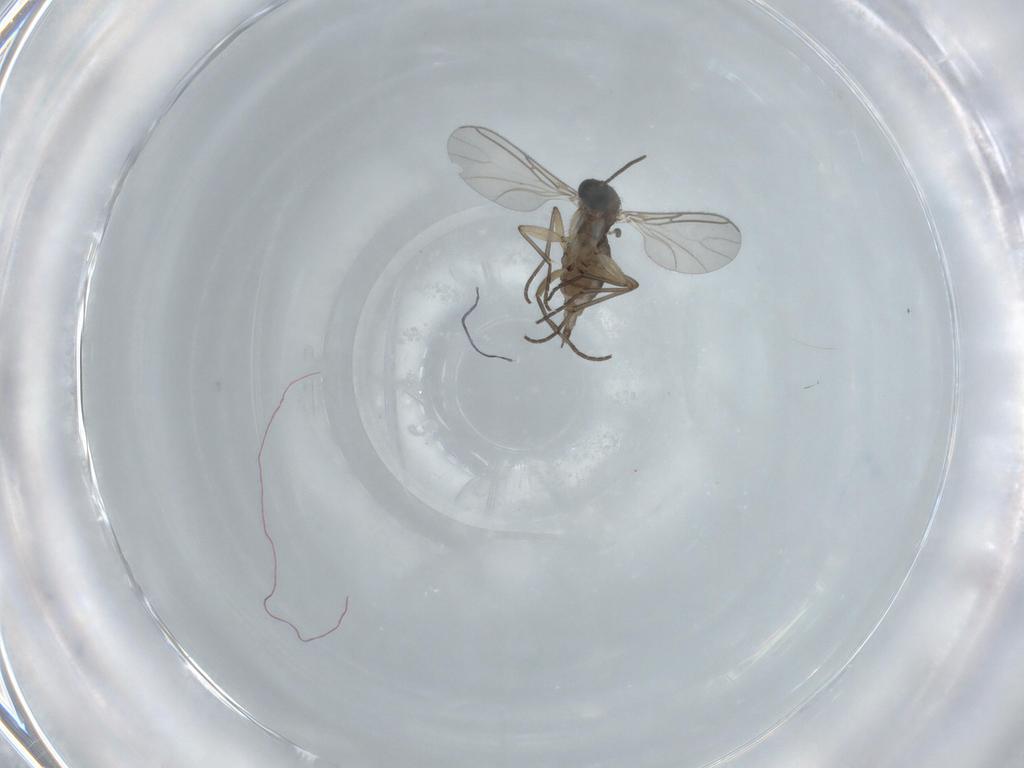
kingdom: Animalia
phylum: Arthropoda
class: Insecta
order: Diptera
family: Sciaridae
